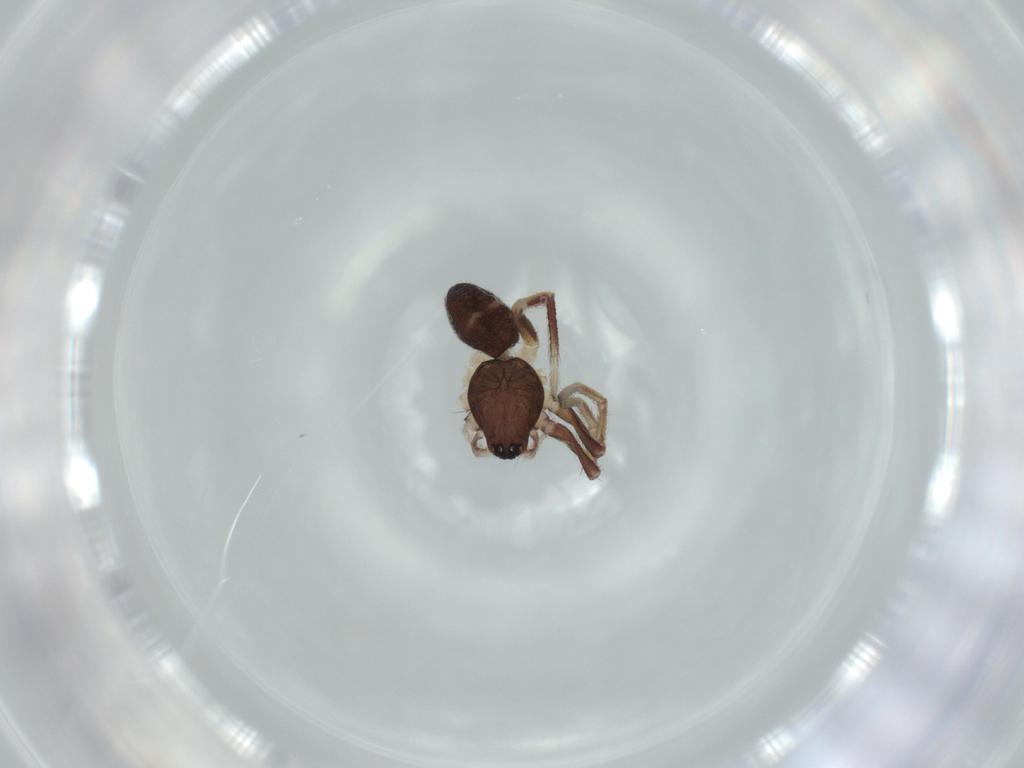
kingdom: Animalia
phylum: Arthropoda
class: Arachnida
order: Araneae
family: Corinnidae
